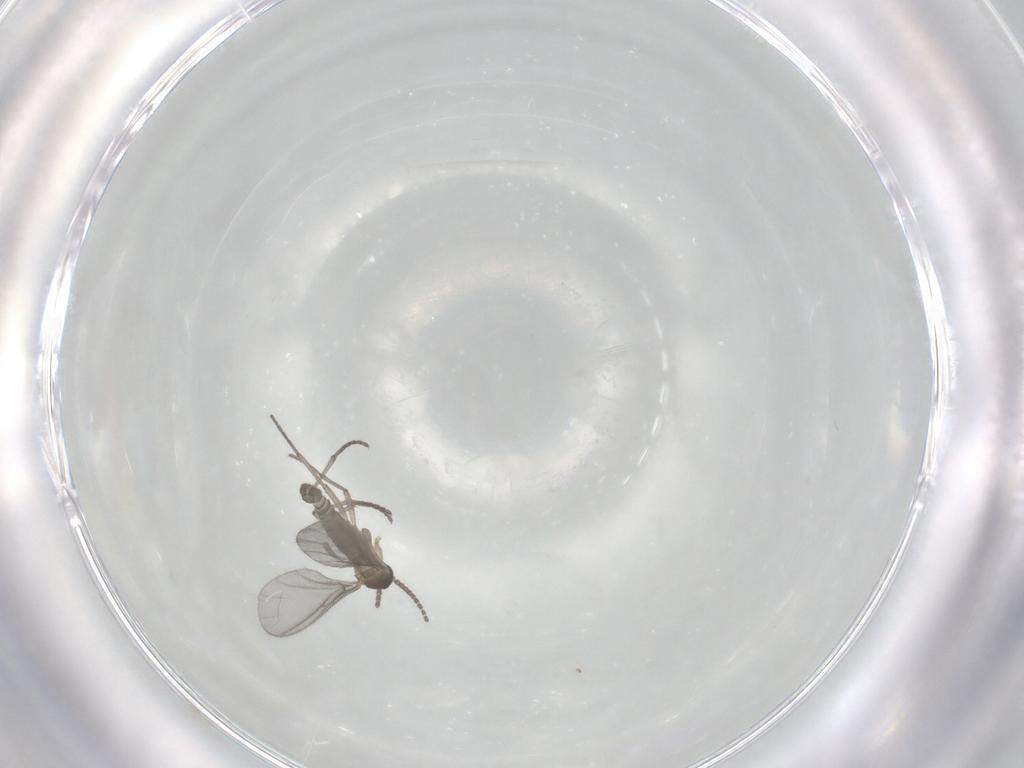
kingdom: Animalia
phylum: Arthropoda
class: Insecta
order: Diptera
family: Sciaridae
